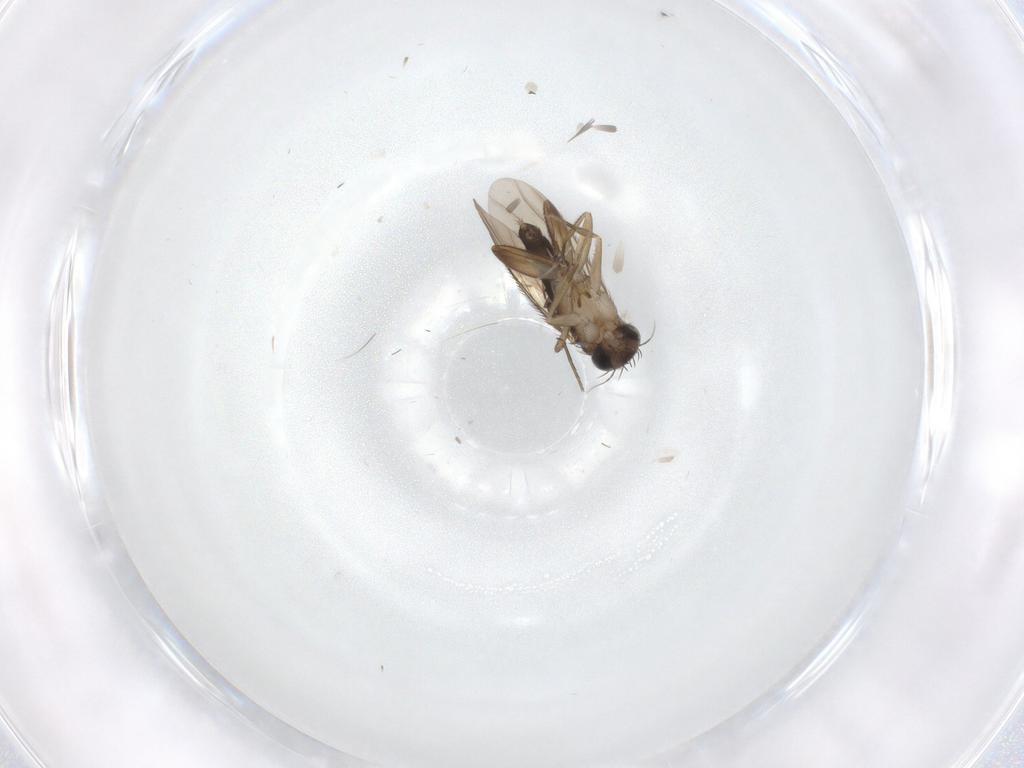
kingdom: Animalia
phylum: Arthropoda
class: Insecta
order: Diptera
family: Phoridae
